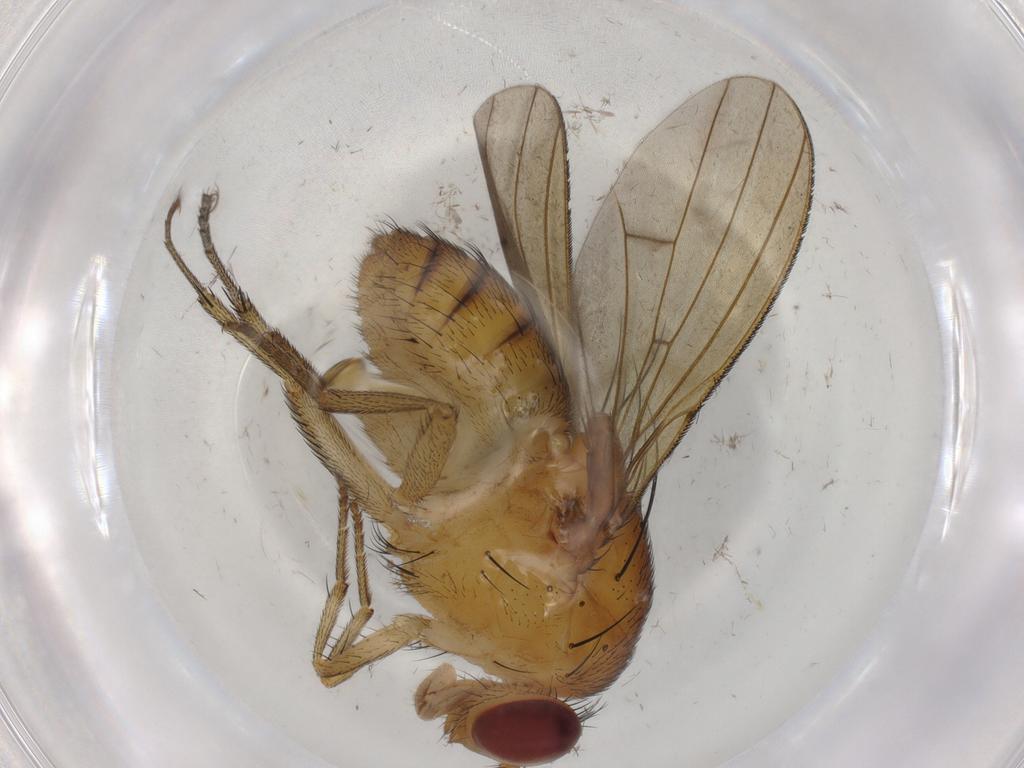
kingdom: Animalia
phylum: Arthropoda
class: Insecta
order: Diptera
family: Psychodidae
